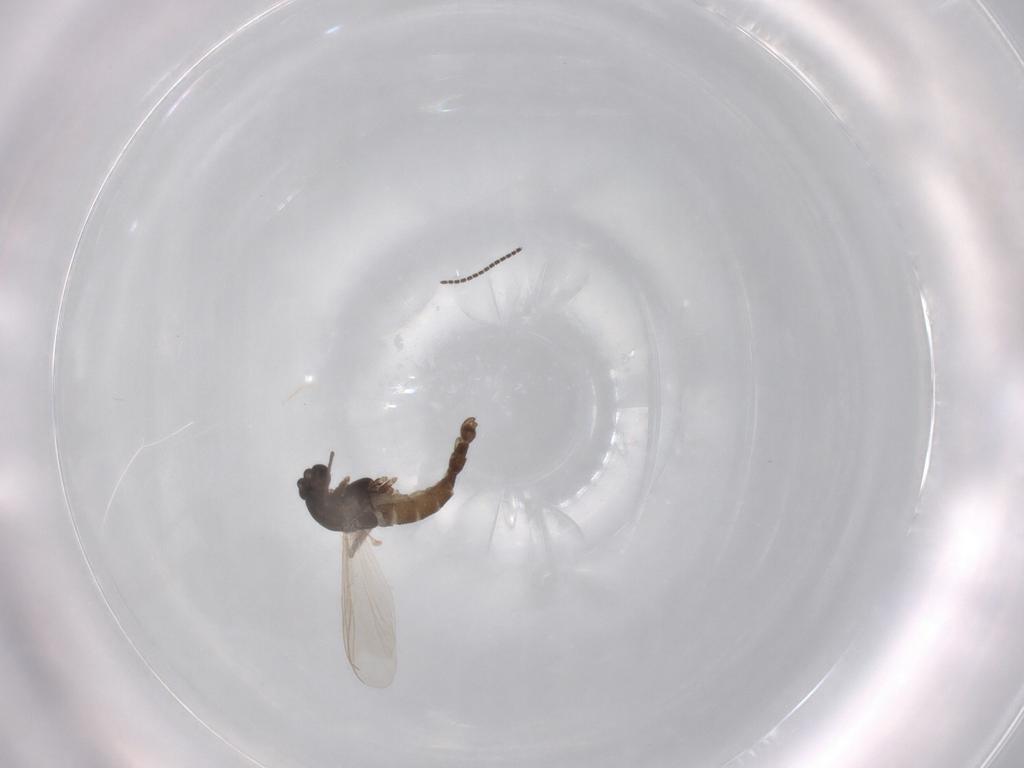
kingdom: Animalia
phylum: Arthropoda
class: Insecta
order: Diptera
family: Chironomidae
